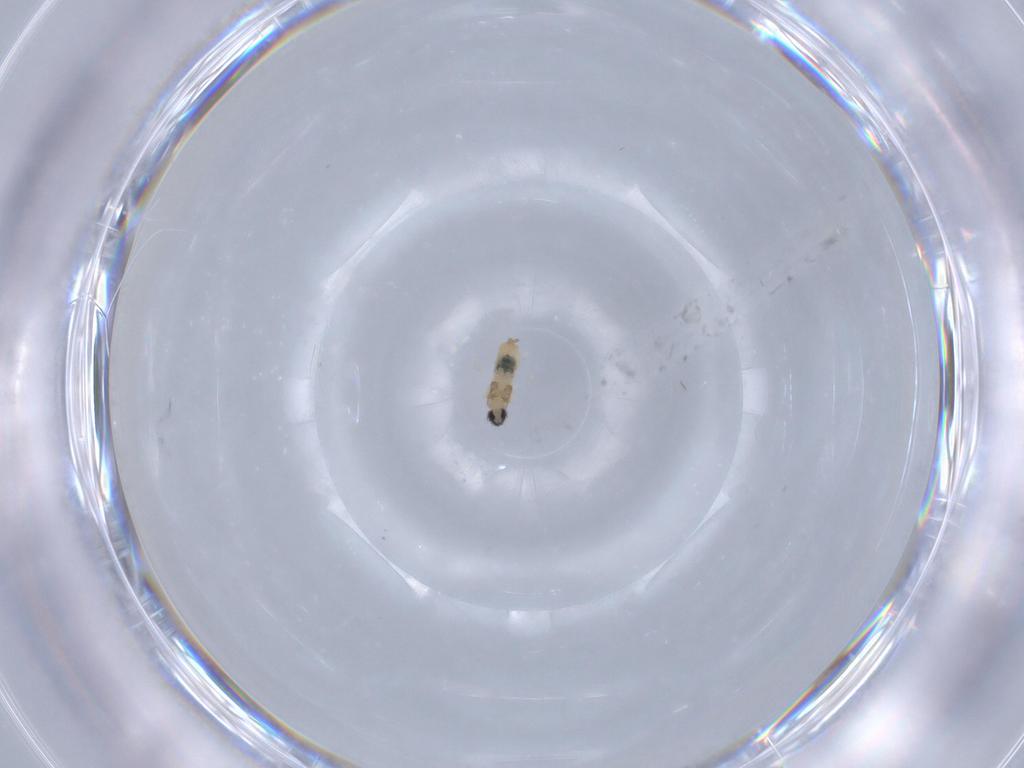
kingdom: Animalia
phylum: Arthropoda
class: Insecta
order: Diptera
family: Cecidomyiidae
